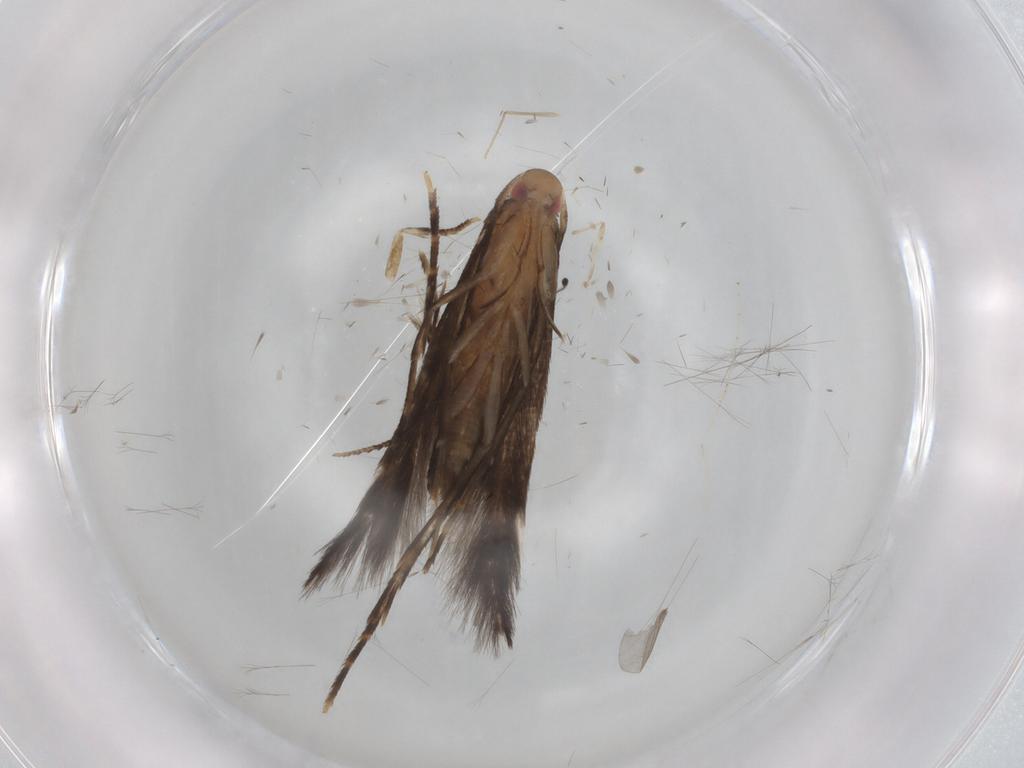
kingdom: Animalia
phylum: Arthropoda
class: Insecta
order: Lepidoptera
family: Elachistidae
